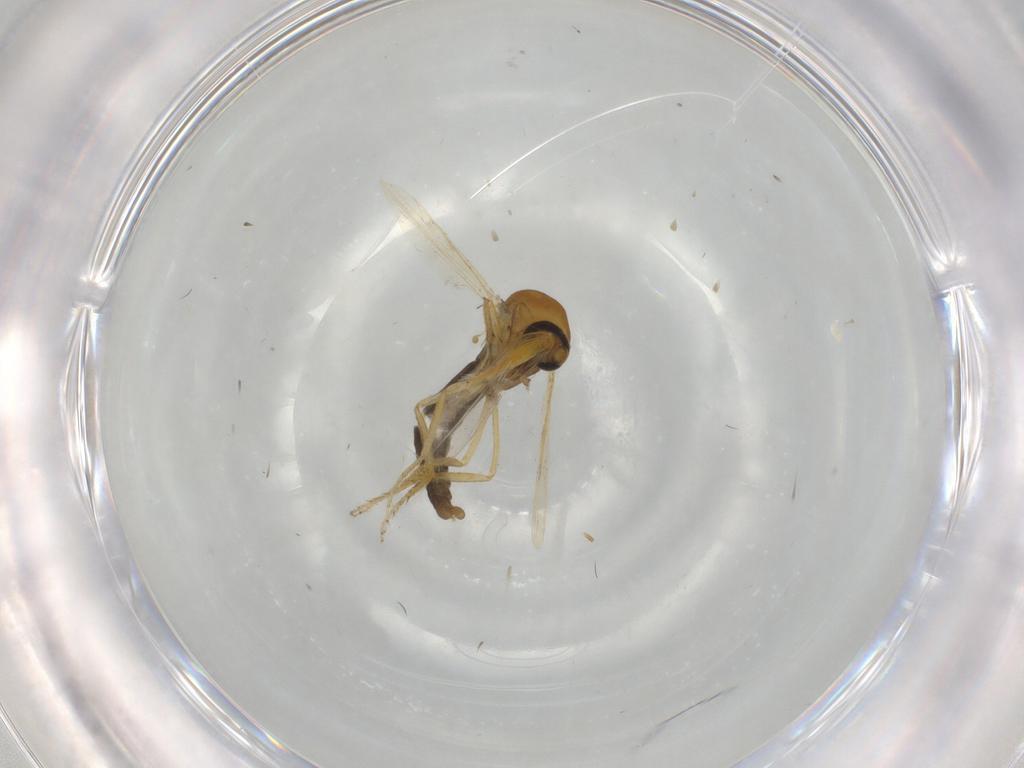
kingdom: Animalia
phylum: Arthropoda
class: Insecta
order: Diptera
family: Ceratopogonidae
